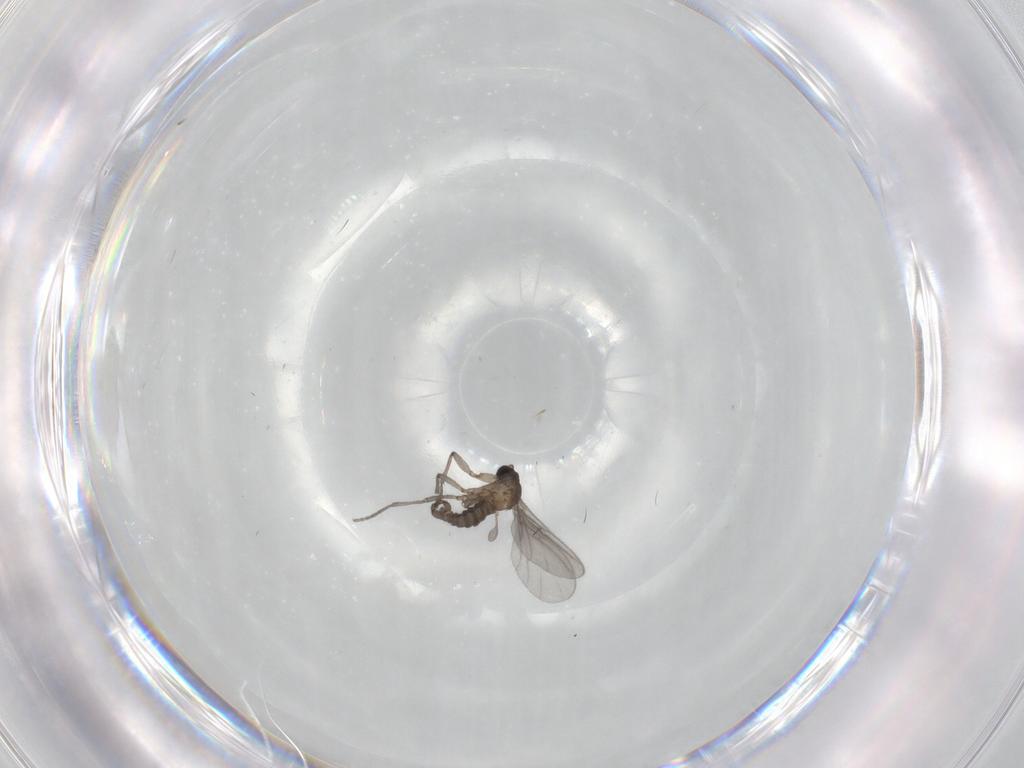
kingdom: Animalia
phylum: Arthropoda
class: Insecta
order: Diptera
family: Sciaridae
